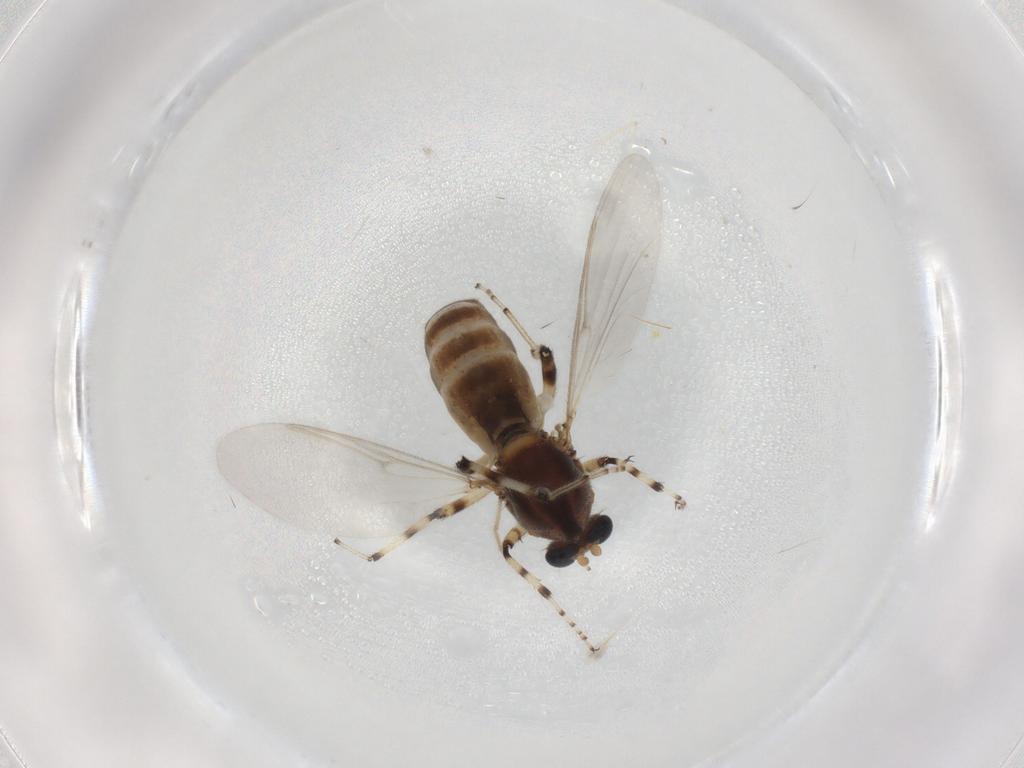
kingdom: Animalia
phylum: Arthropoda
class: Insecta
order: Diptera
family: Ceratopogonidae
